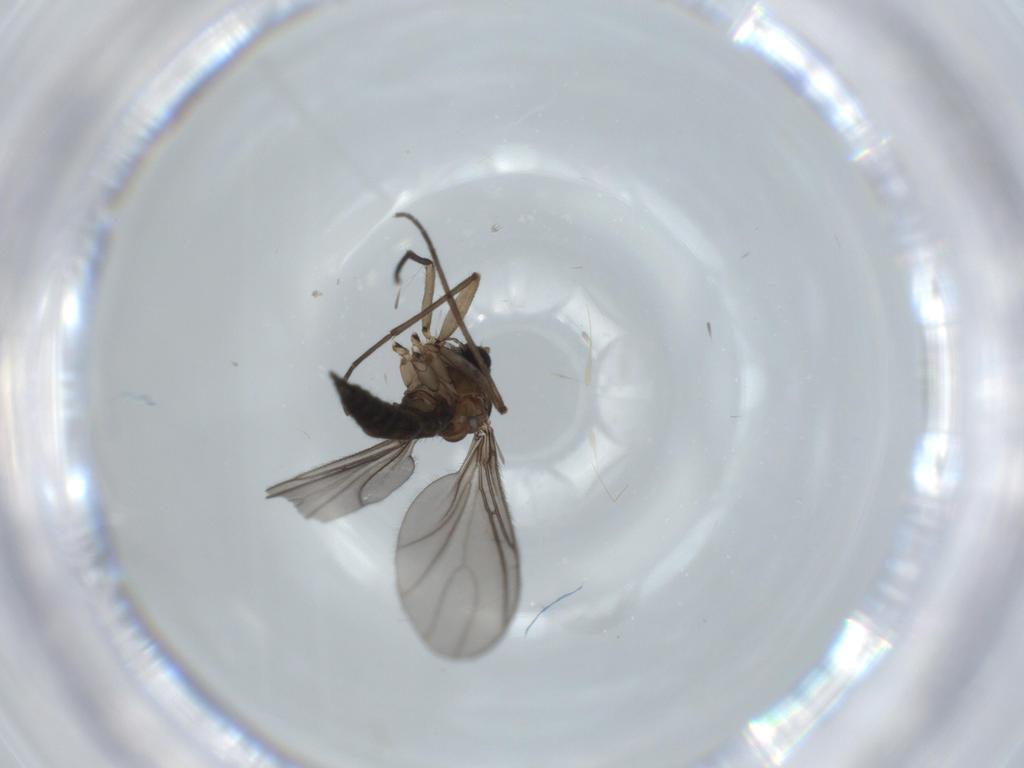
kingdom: Animalia
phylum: Arthropoda
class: Insecta
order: Diptera
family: Sciaridae
